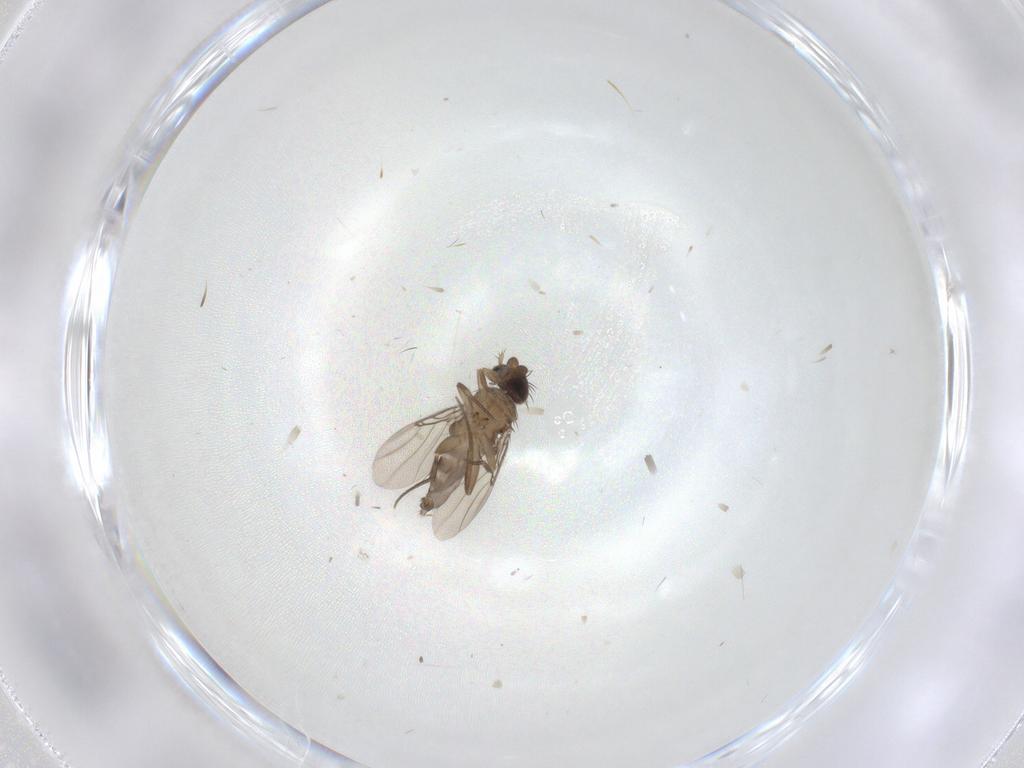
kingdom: Animalia
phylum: Arthropoda
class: Insecta
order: Diptera
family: Phoridae
